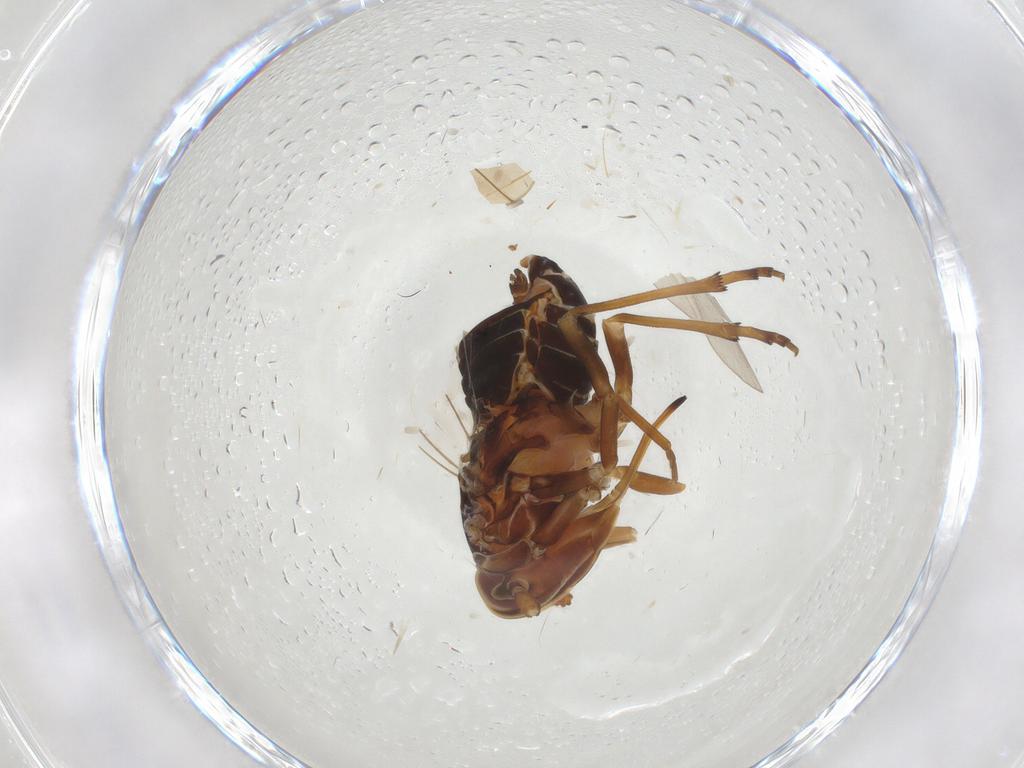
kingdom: Animalia
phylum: Arthropoda
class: Insecta
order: Hemiptera
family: Kinnaridae
